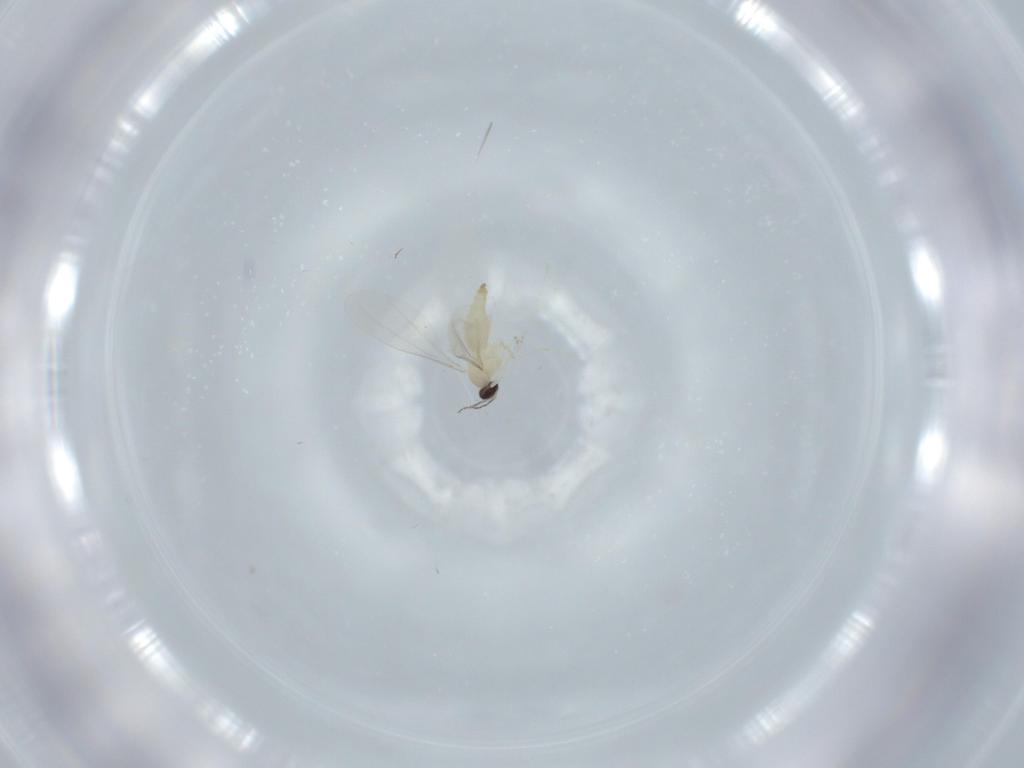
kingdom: Animalia
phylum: Arthropoda
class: Insecta
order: Diptera
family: Cecidomyiidae
